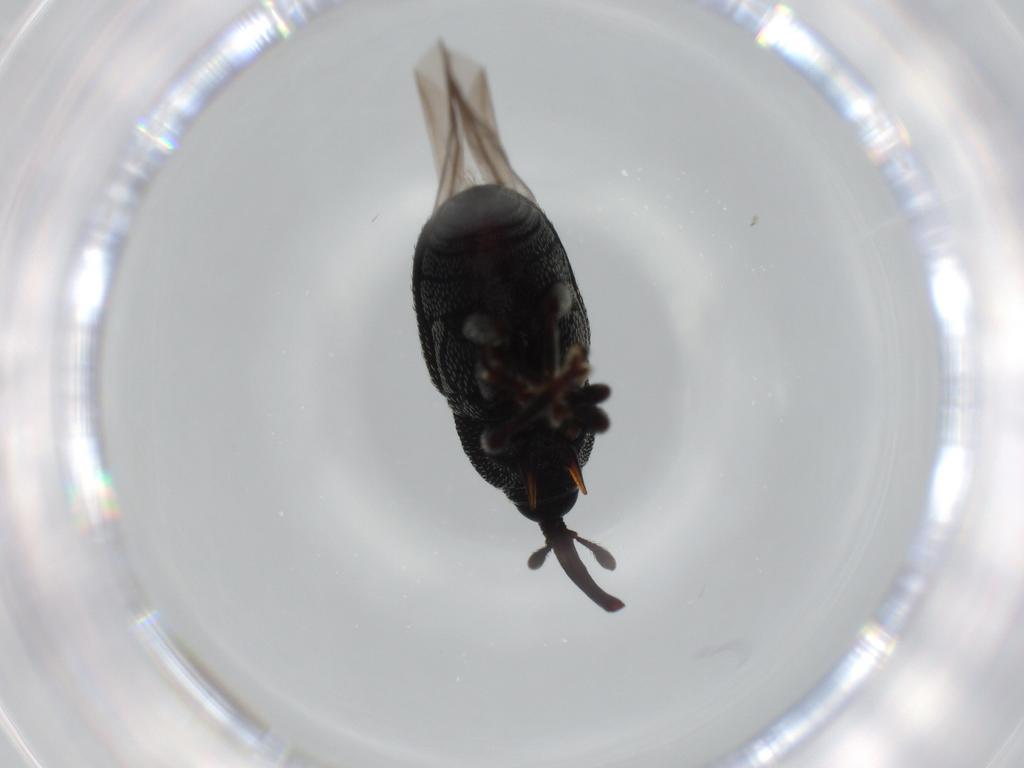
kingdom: Animalia
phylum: Arthropoda
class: Insecta
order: Coleoptera
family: Curculionidae
